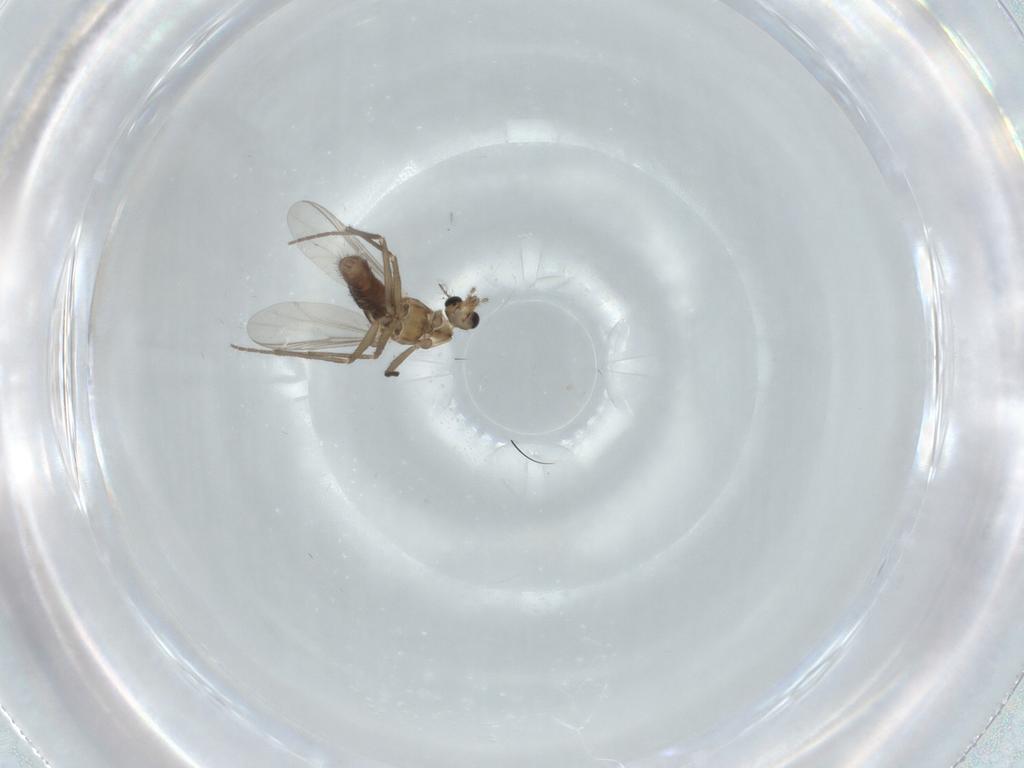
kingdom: Animalia
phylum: Arthropoda
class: Insecta
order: Diptera
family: Chironomidae
